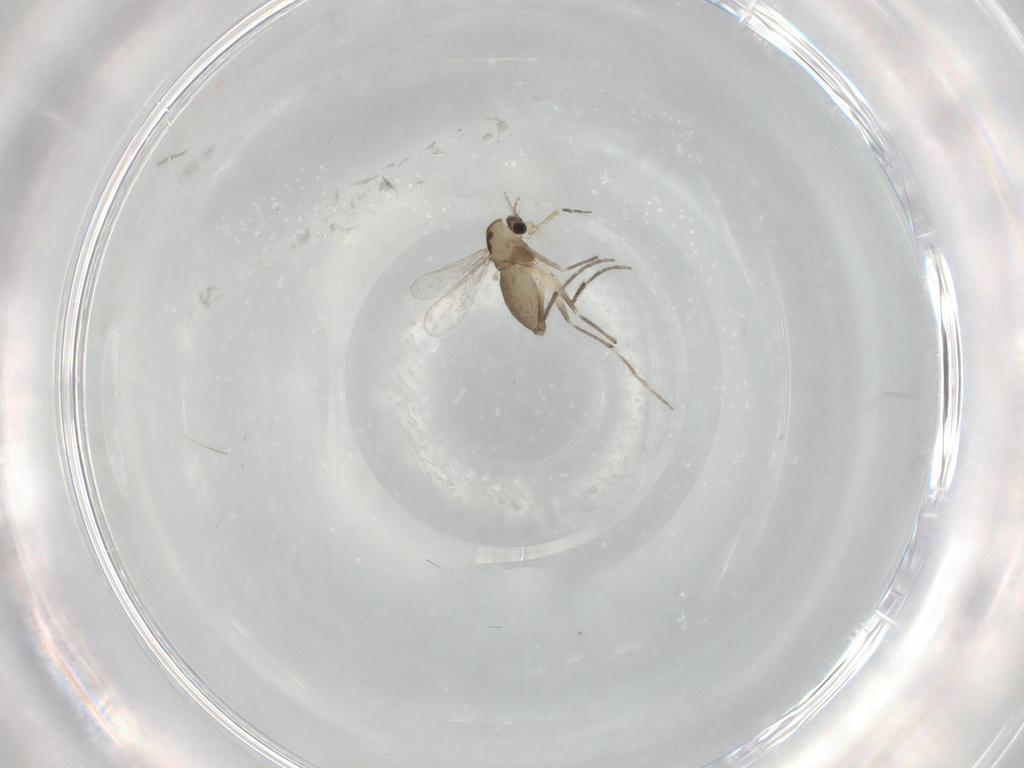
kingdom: Animalia
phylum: Arthropoda
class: Insecta
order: Diptera
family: Chironomidae
